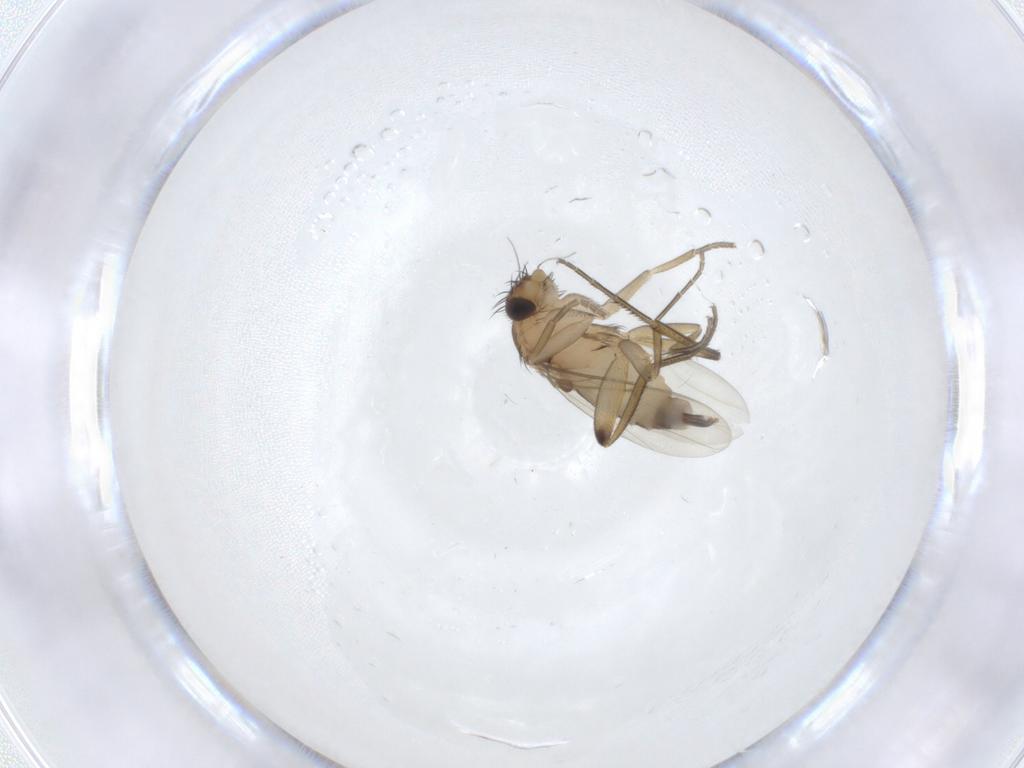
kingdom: Animalia
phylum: Arthropoda
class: Insecta
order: Diptera
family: Phoridae
